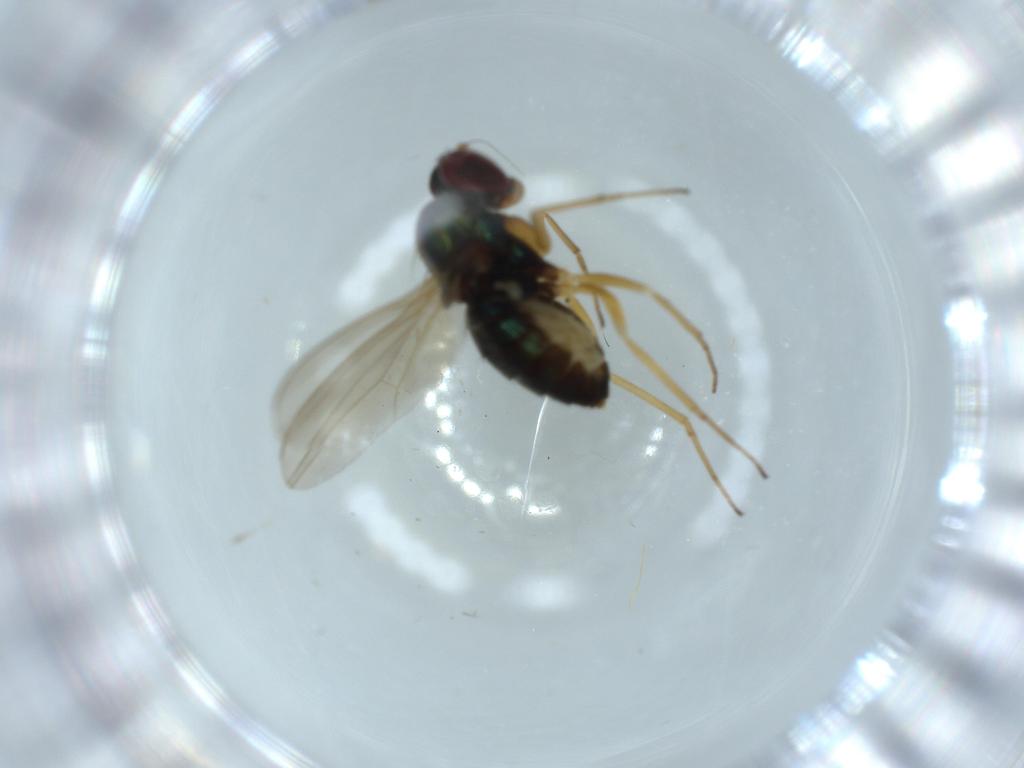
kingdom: Animalia
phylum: Arthropoda
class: Insecta
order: Diptera
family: Dolichopodidae
